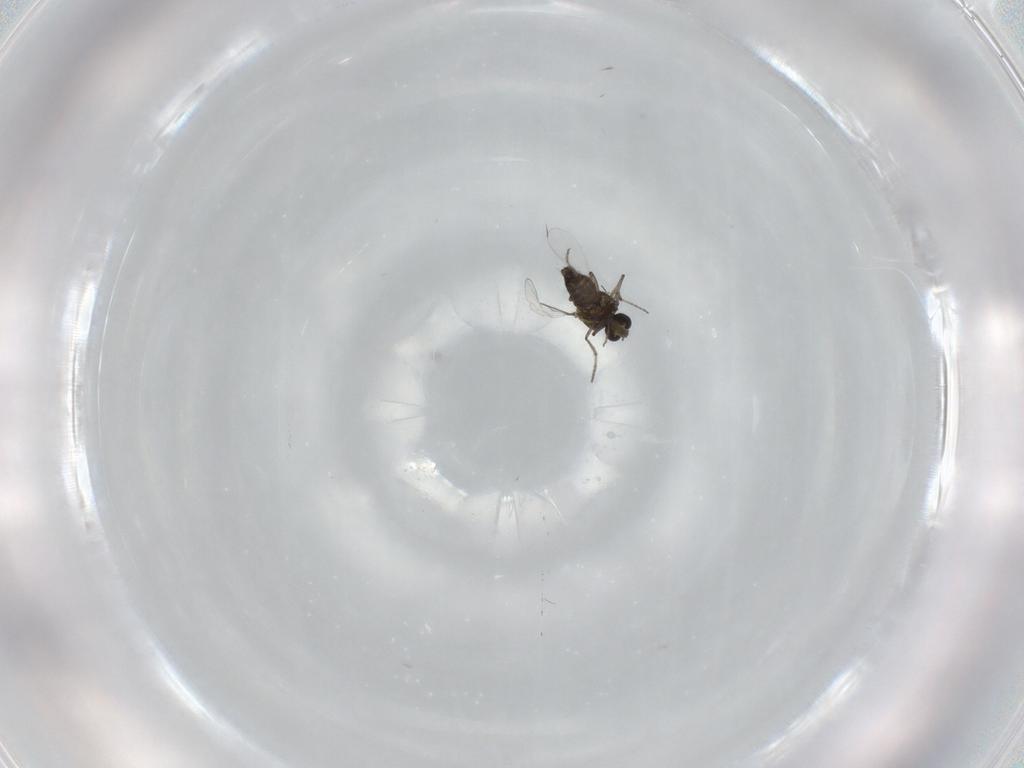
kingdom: Animalia
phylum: Arthropoda
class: Insecta
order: Diptera
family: Ceratopogonidae
